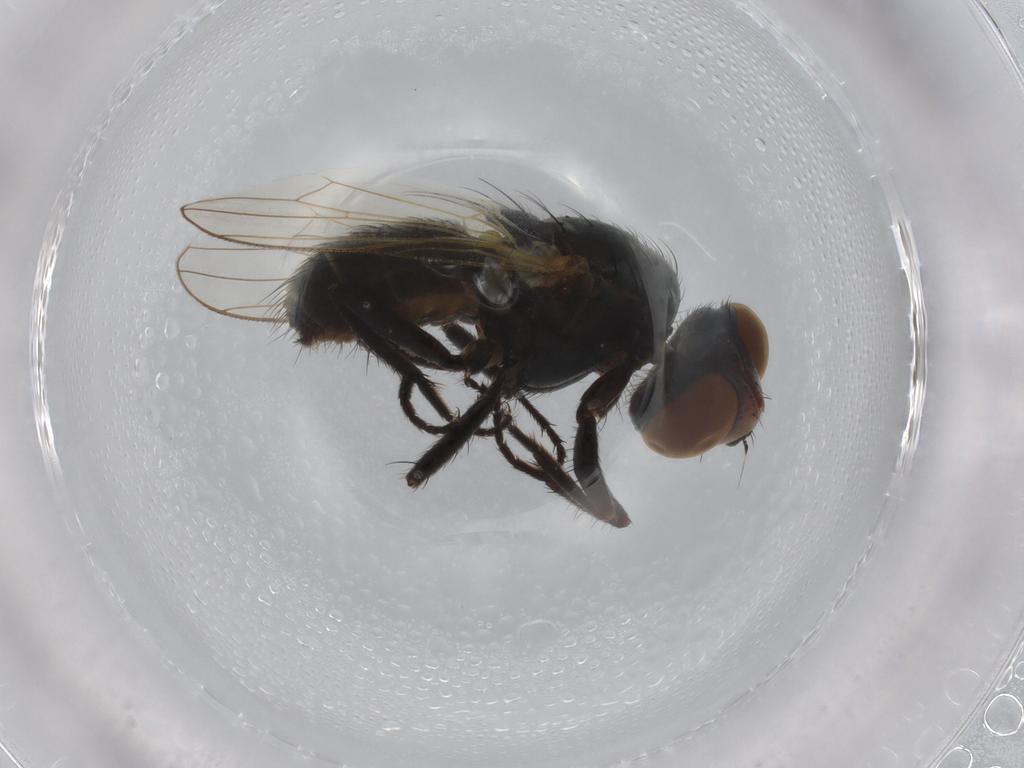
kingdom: Animalia
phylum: Arthropoda
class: Insecta
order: Diptera
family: Anthomyiidae
